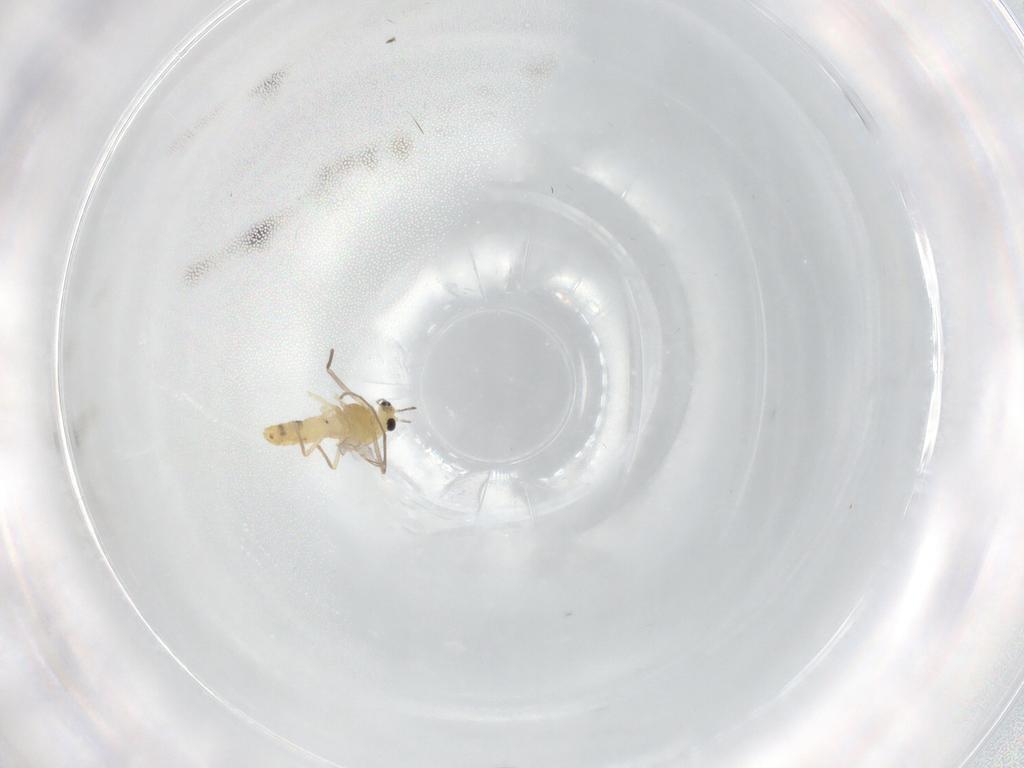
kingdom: Animalia
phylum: Arthropoda
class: Insecta
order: Diptera
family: Chironomidae
